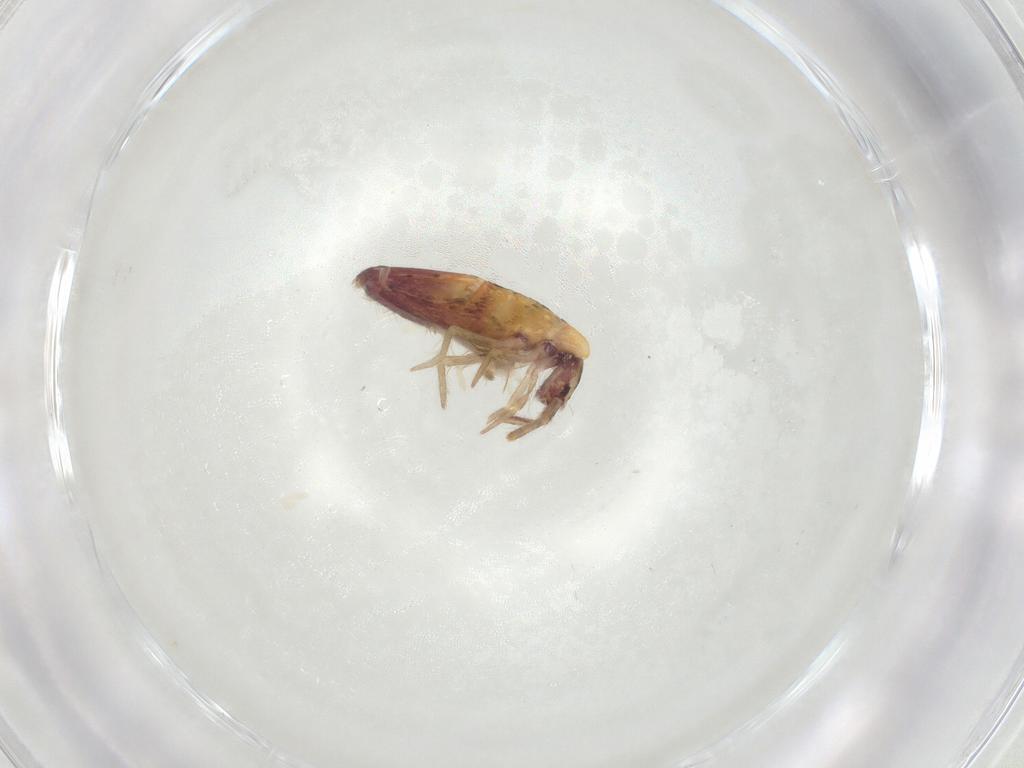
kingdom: Animalia
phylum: Arthropoda
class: Collembola
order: Entomobryomorpha
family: Entomobryidae
